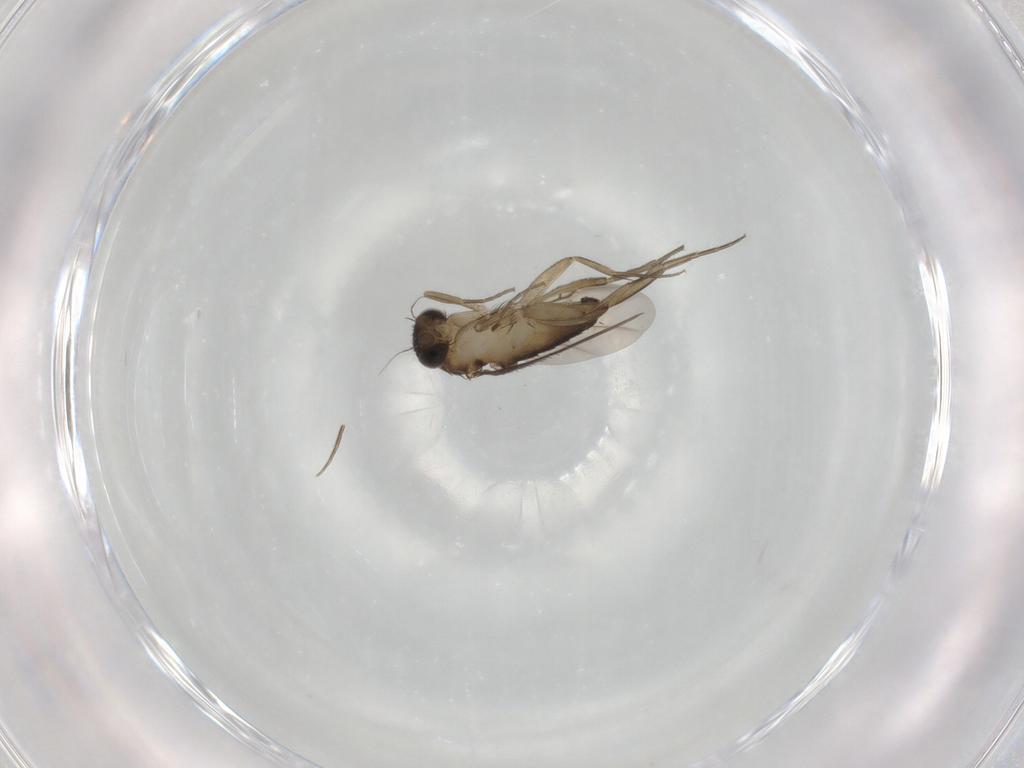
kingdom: Animalia
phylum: Arthropoda
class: Insecta
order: Diptera
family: Phoridae
